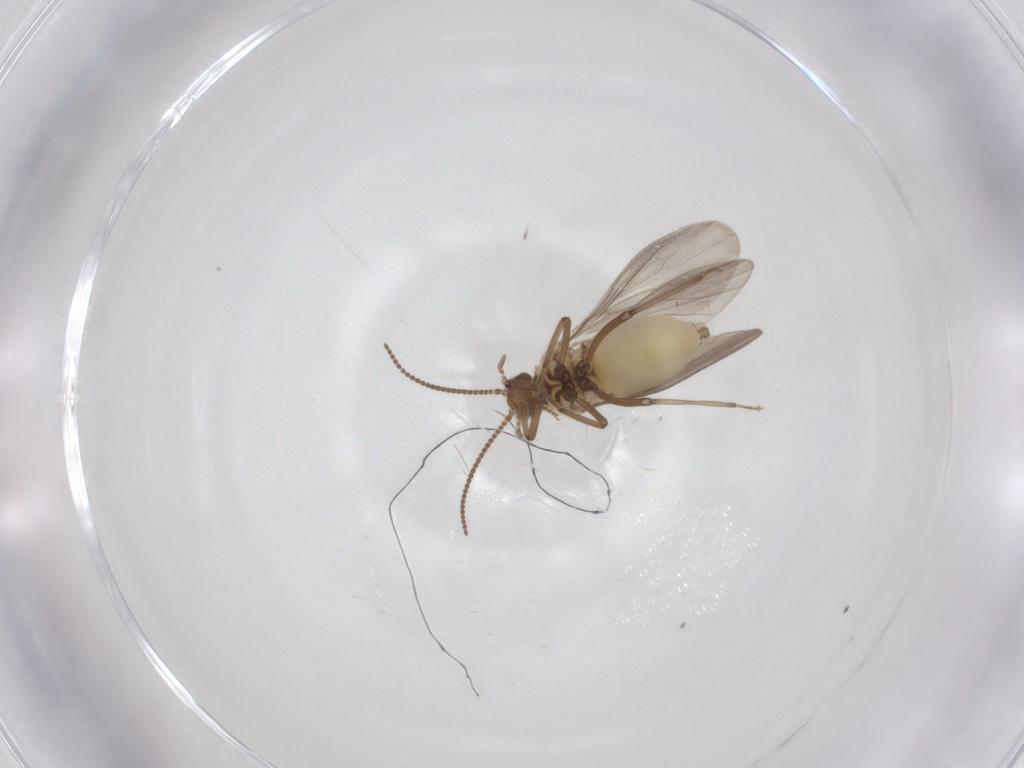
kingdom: Animalia
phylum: Arthropoda
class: Insecta
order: Neuroptera
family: Coniopterygidae
